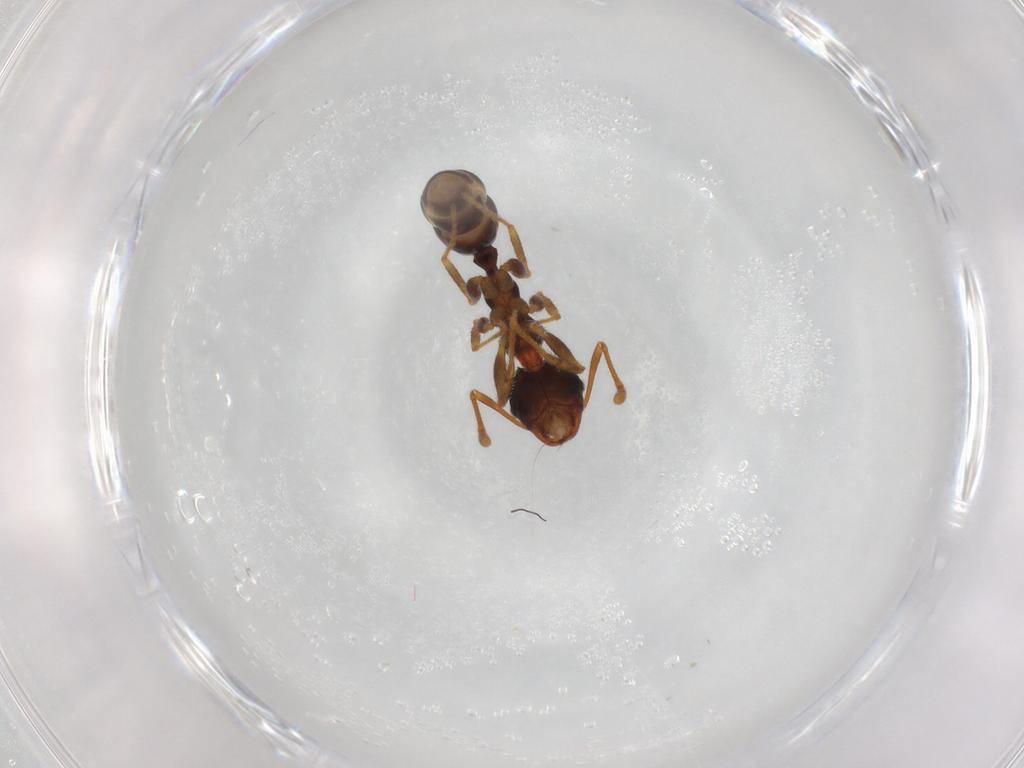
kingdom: Animalia
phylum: Arthropoda
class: Insecta
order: Hymenoptera
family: Formicidae
